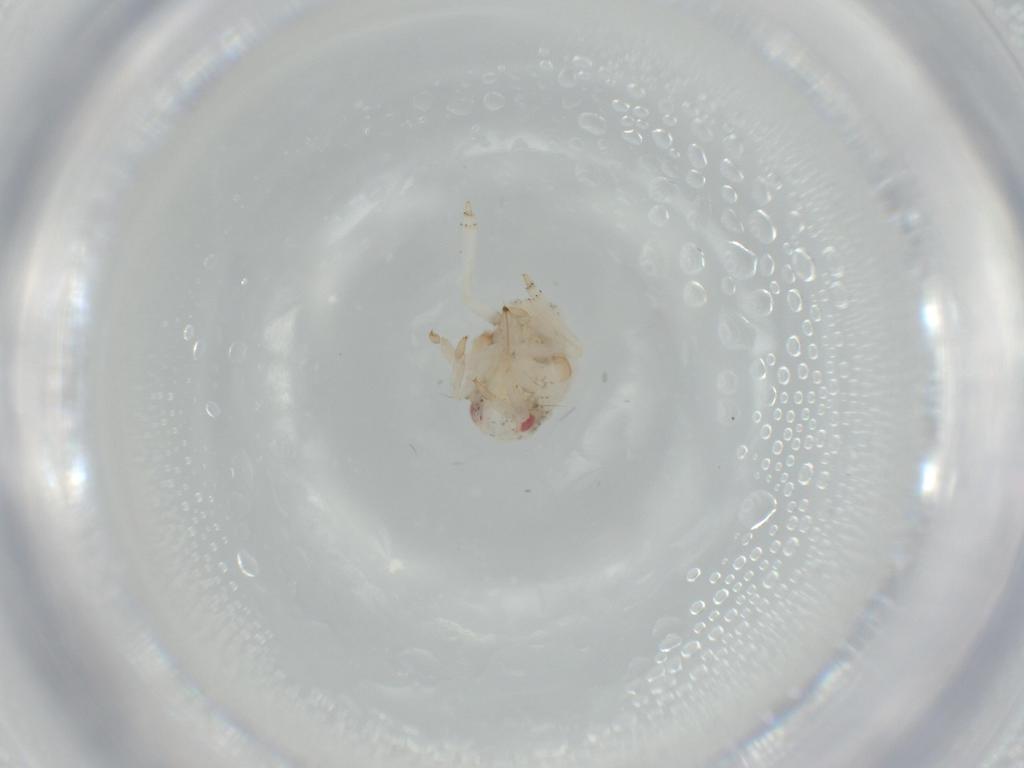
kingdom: Animalia
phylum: Arthropoda
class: Insecta
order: Hemiptera
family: Acanaloniidae
